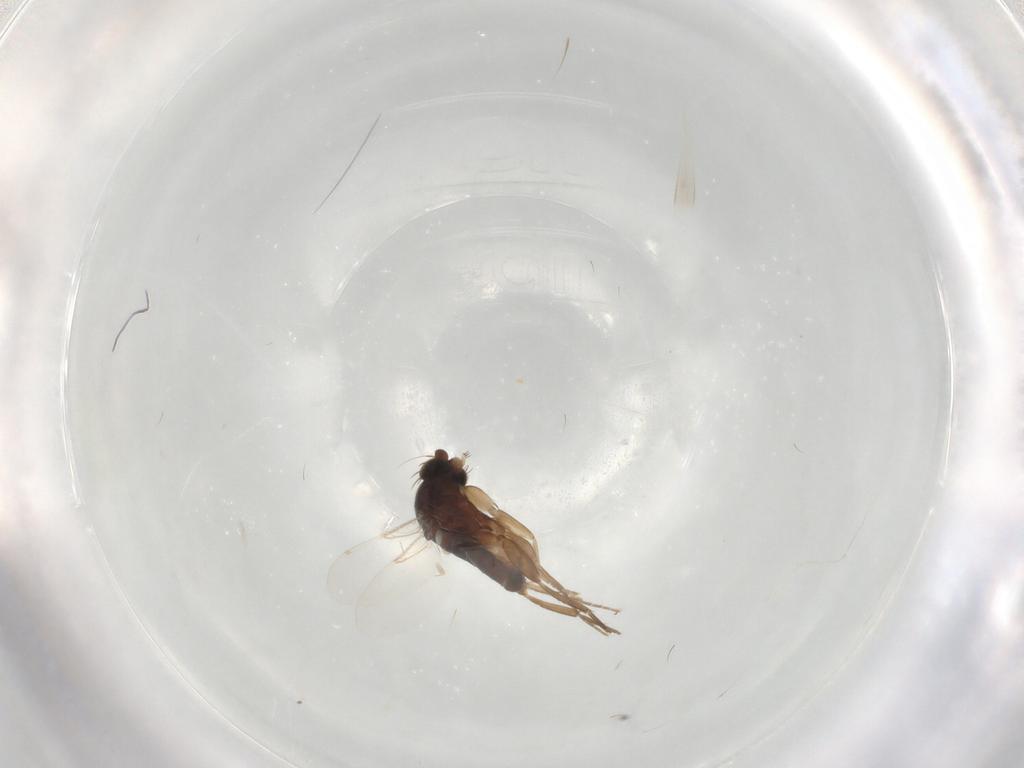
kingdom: Animalia
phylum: Arthropoda
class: Insecta
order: Diptera
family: Phoridae
